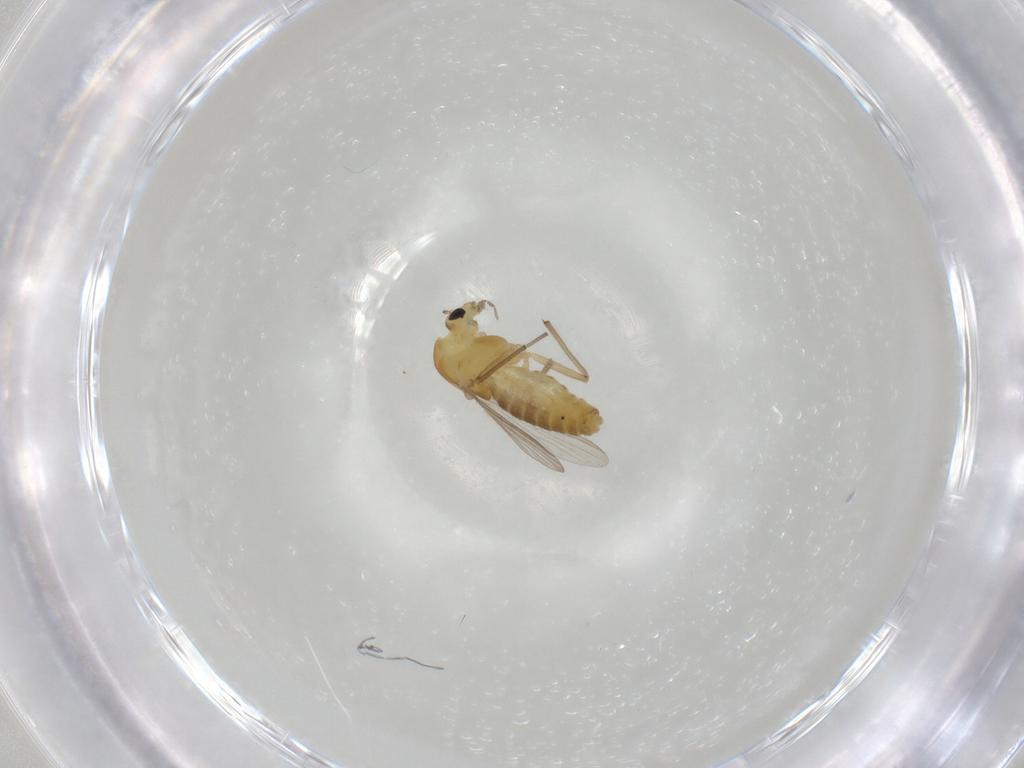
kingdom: Animalia
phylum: Arthropoda
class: Insecta
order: Diptera
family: Chironomidae
